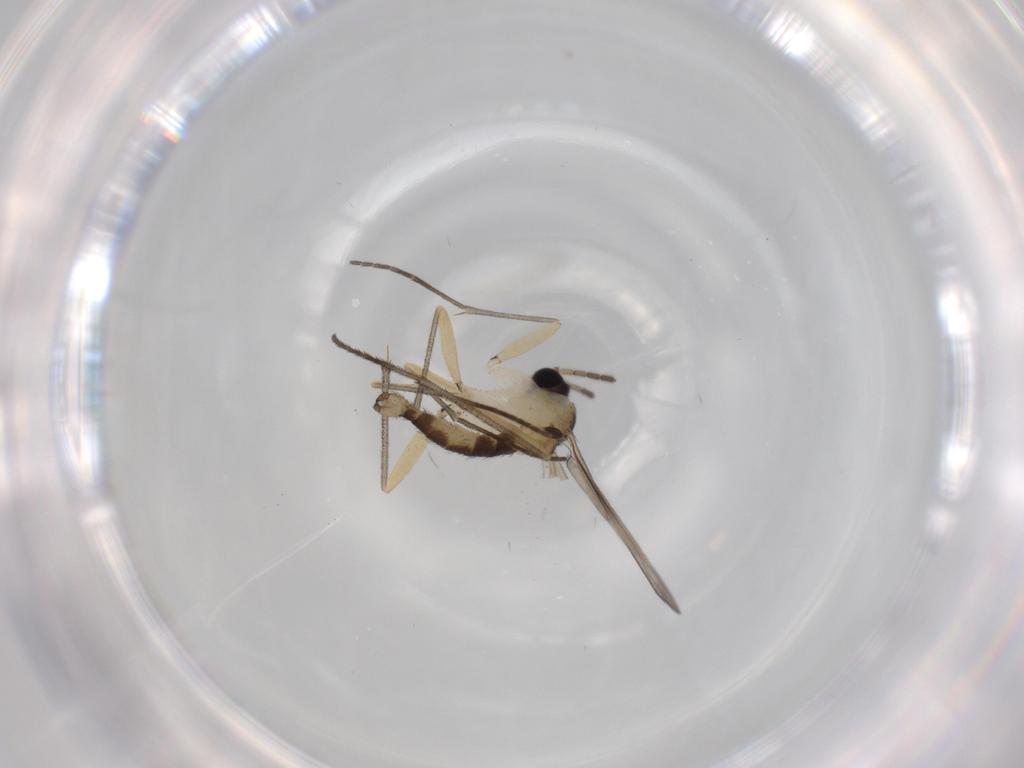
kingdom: Animalia
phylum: Arthropoda
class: Insecta
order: Diptera
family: Sciaridae
